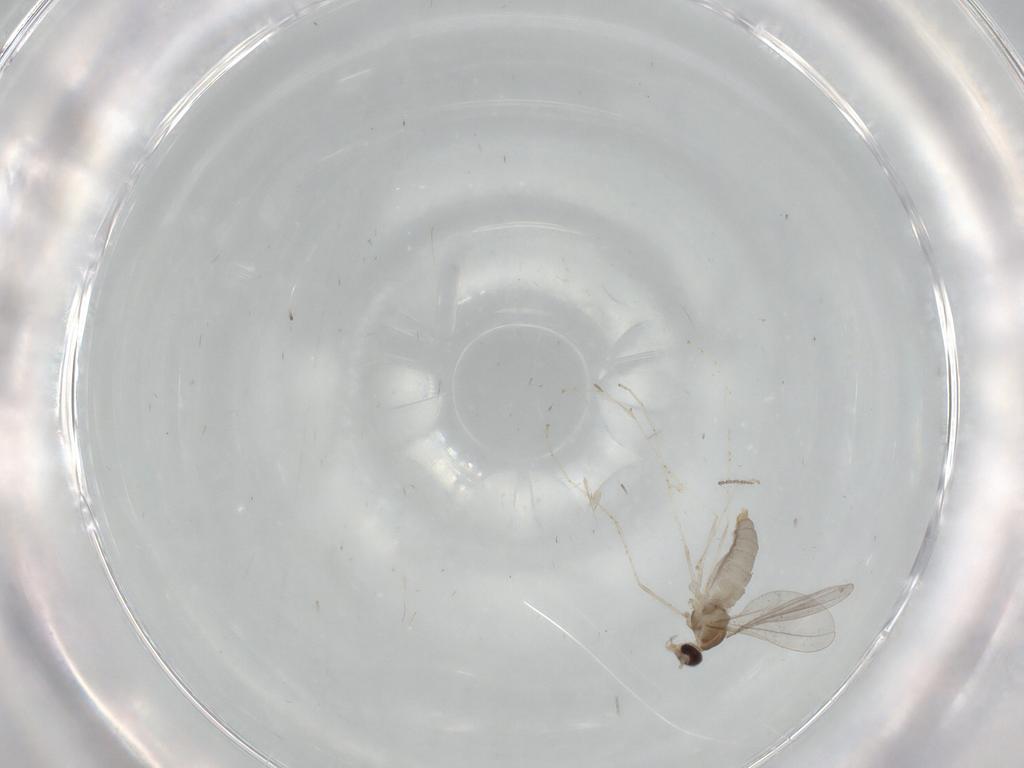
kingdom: Animalia
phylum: Arthropoda
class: Insecta
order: Diptera
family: Cecidomyiidae
